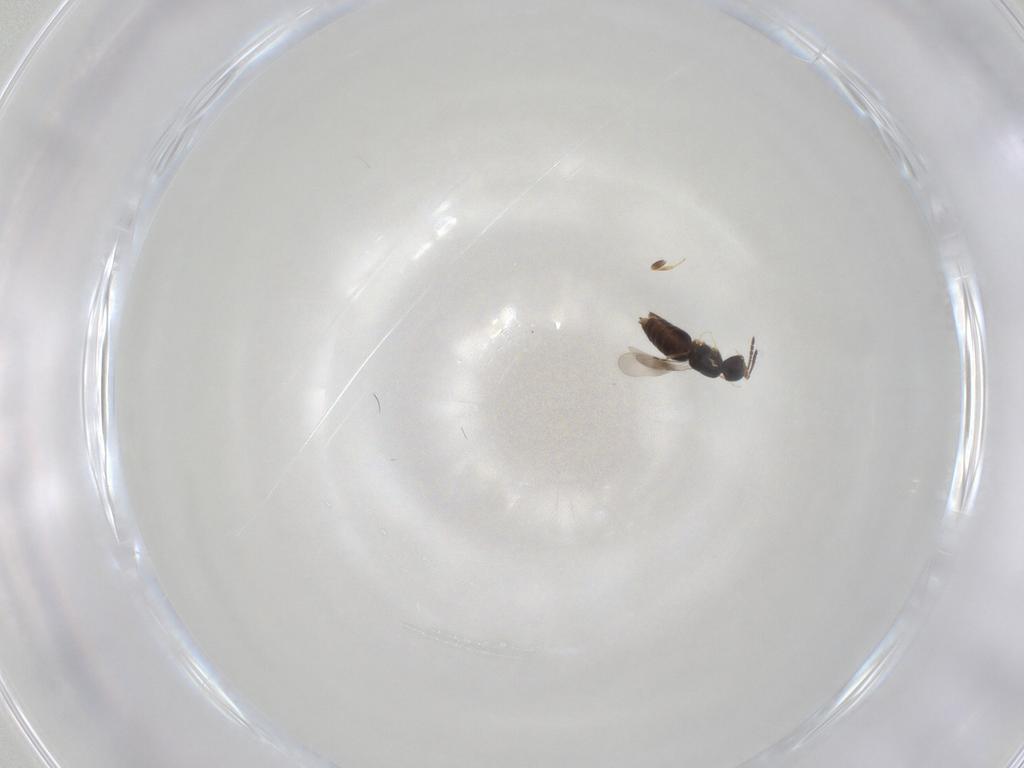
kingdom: Animalia
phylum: Arthropoda
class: Insecta
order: Hymenoptera
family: Ceraphronidae
